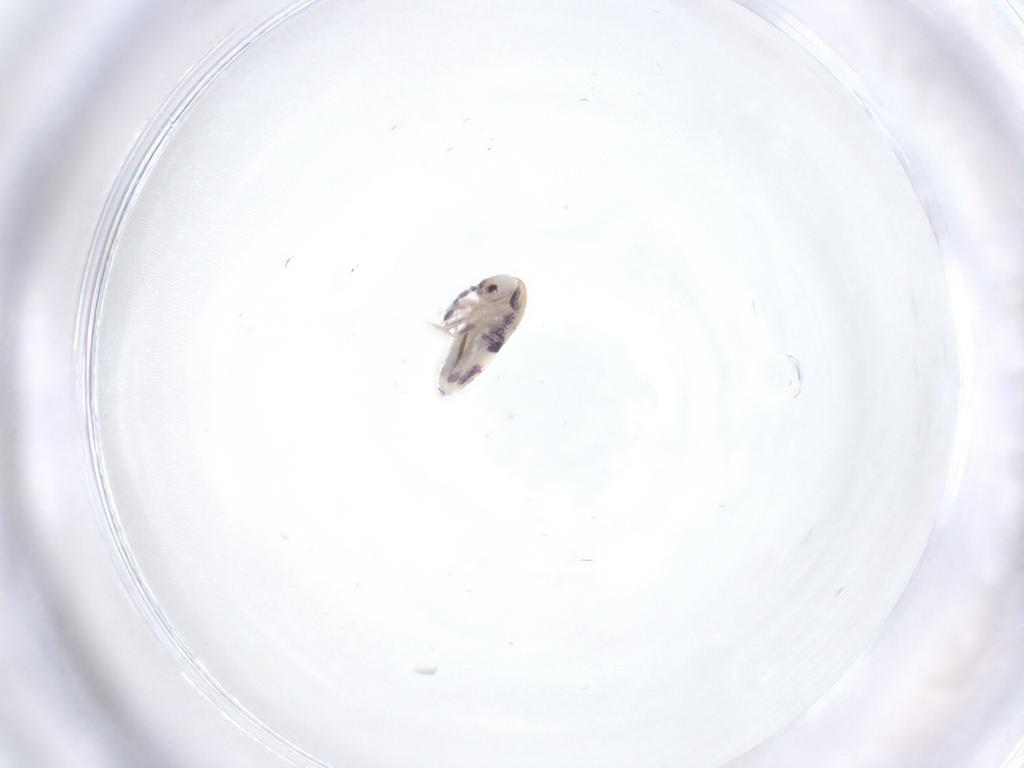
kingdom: Animalia
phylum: Arthropoda
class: Collembola
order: Entomobryomorpha
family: Entomobryidae
